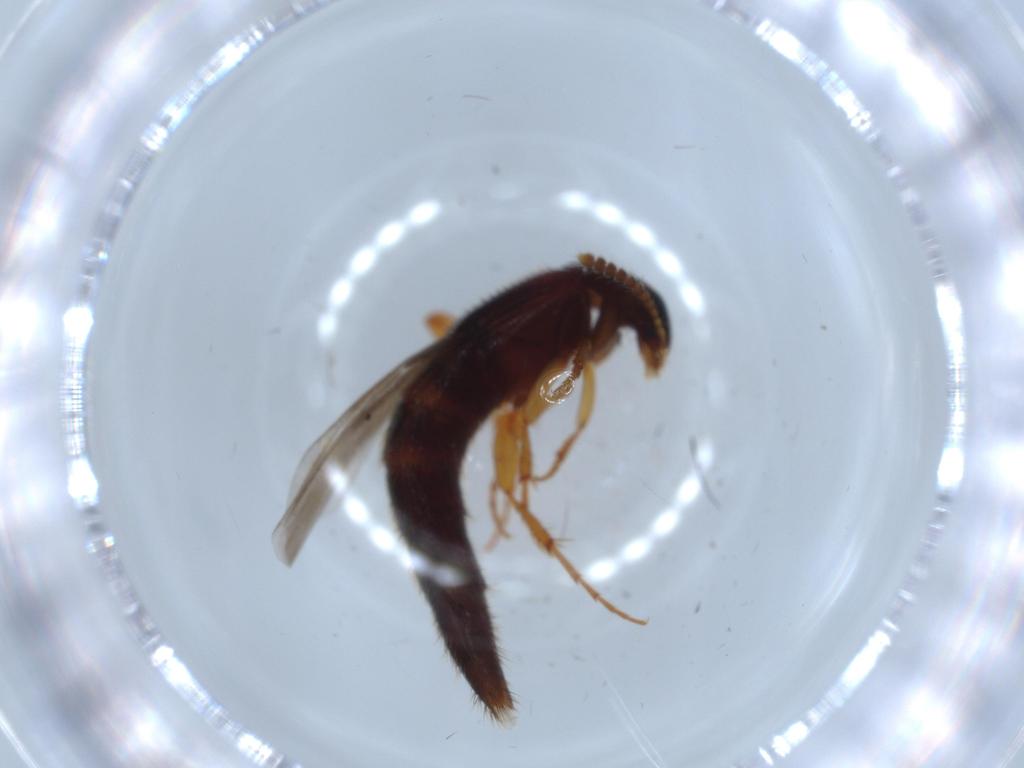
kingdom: Animalia
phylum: Arthropoda
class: Insecta
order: Coleoptera
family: Staphylinidae
